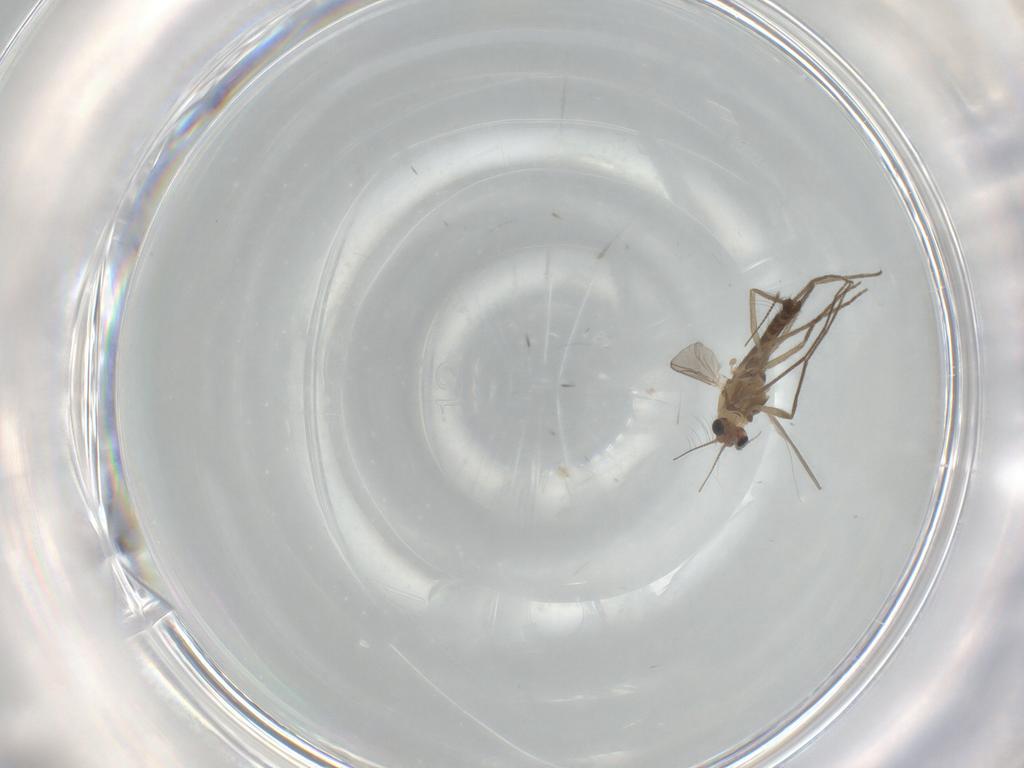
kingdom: Animalia
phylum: Arthropoda
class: Insecta
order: Diptera
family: Chironomidae
